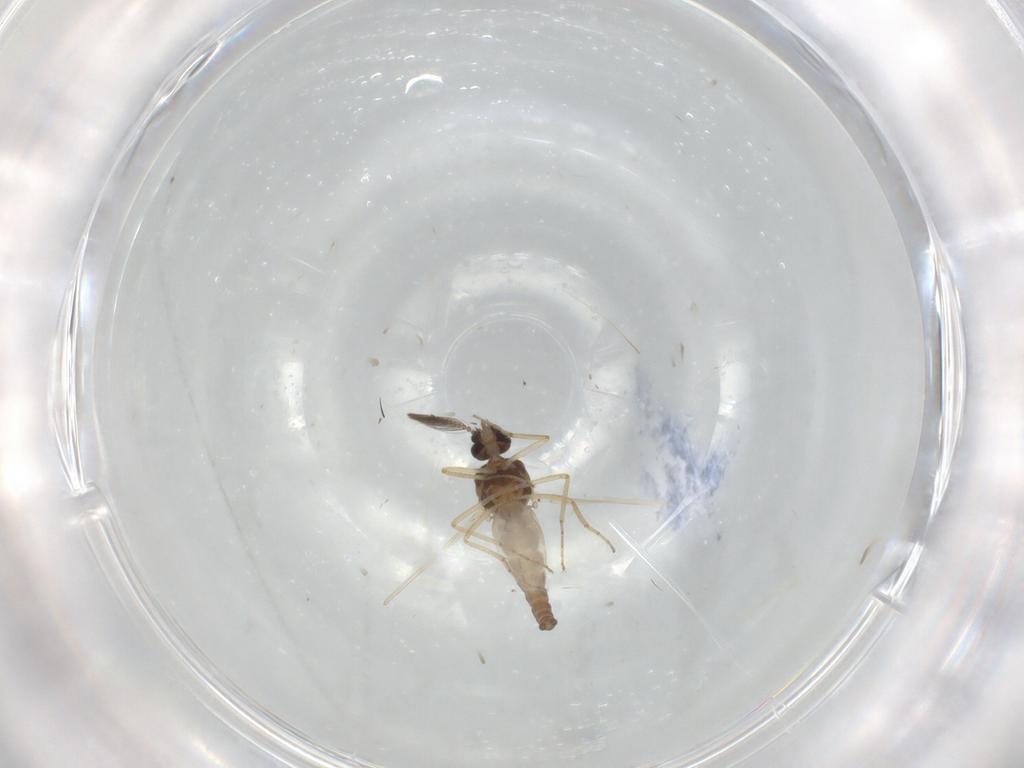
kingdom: Animalia
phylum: Arthropoda
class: Insecta
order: Diptera
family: Ceratopogonidae
